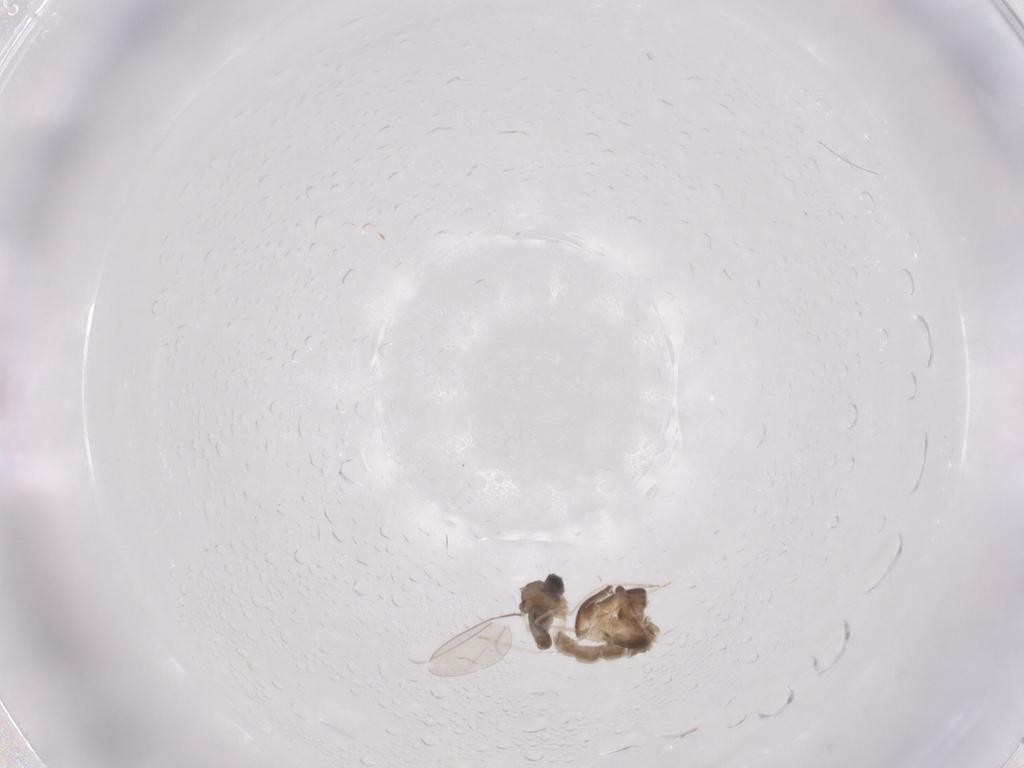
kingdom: Animalia
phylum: Arthropoda
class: Insecta
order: Diptera
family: Cecidomyiidae
